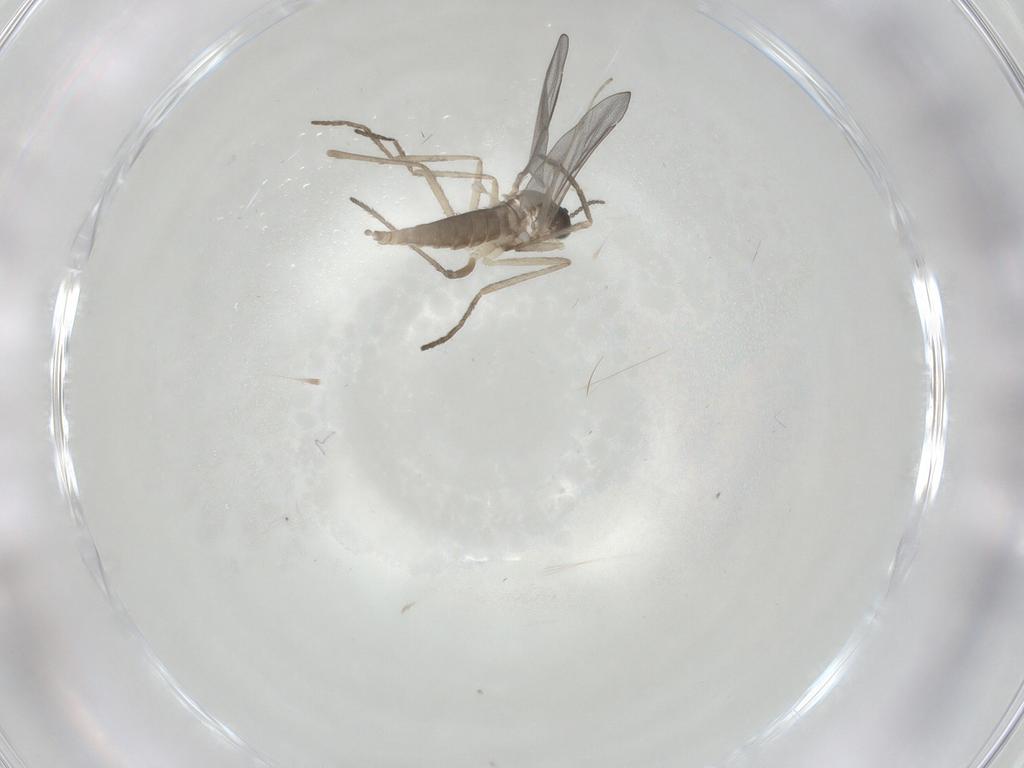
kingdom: Animalia
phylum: Arthropoda
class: Insecta
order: Diptera
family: Cecidomyiidae
